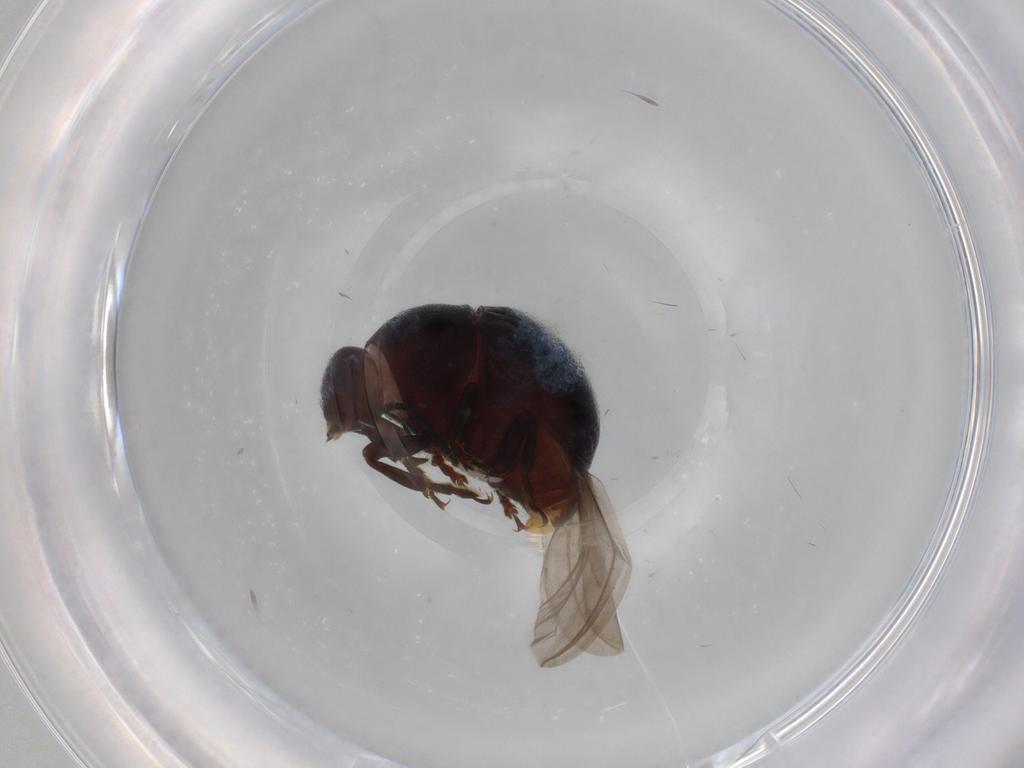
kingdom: Animalia
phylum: Arthropoda
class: Insecta
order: Coleoptera
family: Anthribidae
